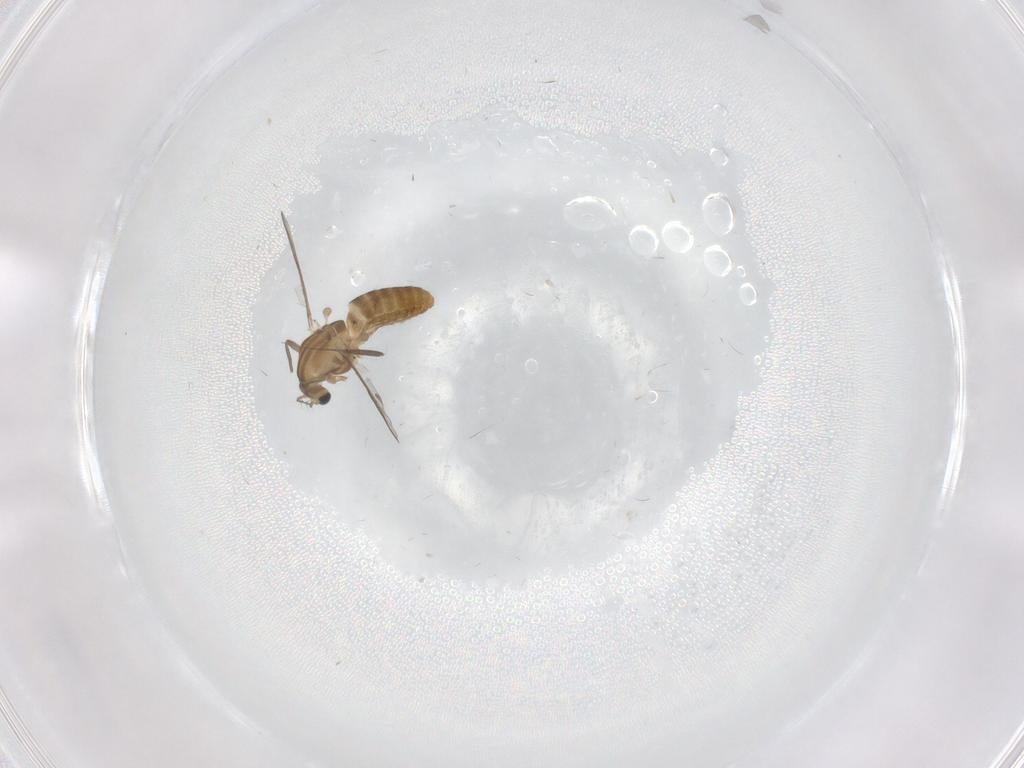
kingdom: Animalia
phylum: Arthropoda
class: Insecta
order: Diptera
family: Chironomidae
